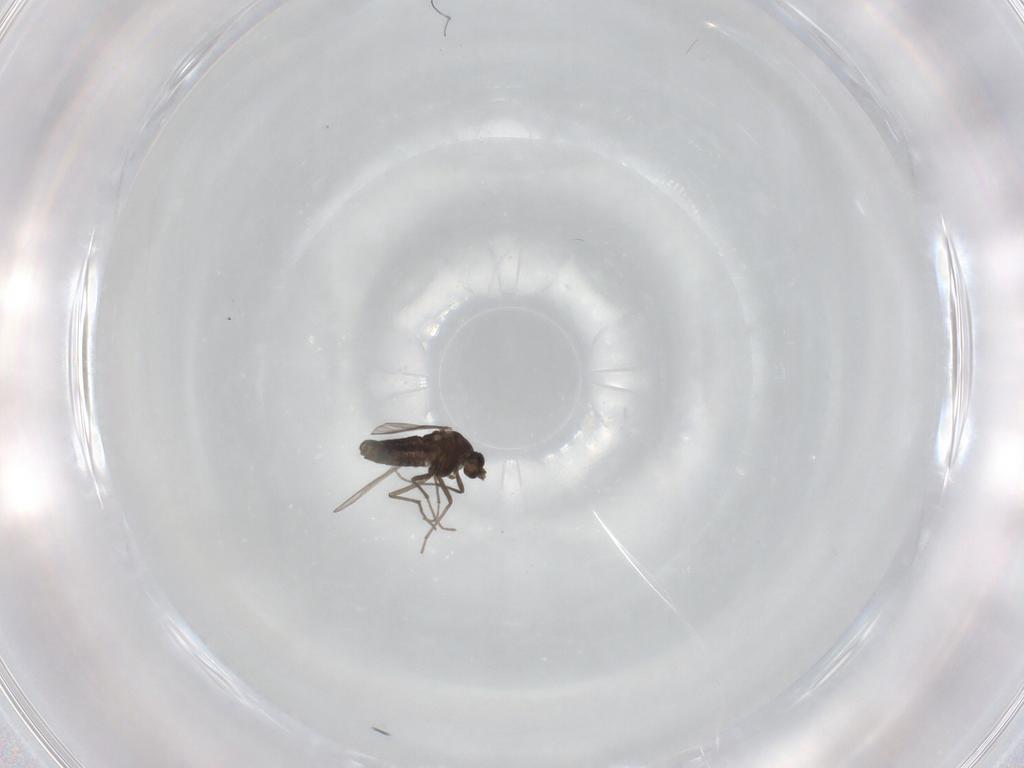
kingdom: Animalia
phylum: Arthropoda
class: Insecta
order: Diptera
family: Chironomidae
